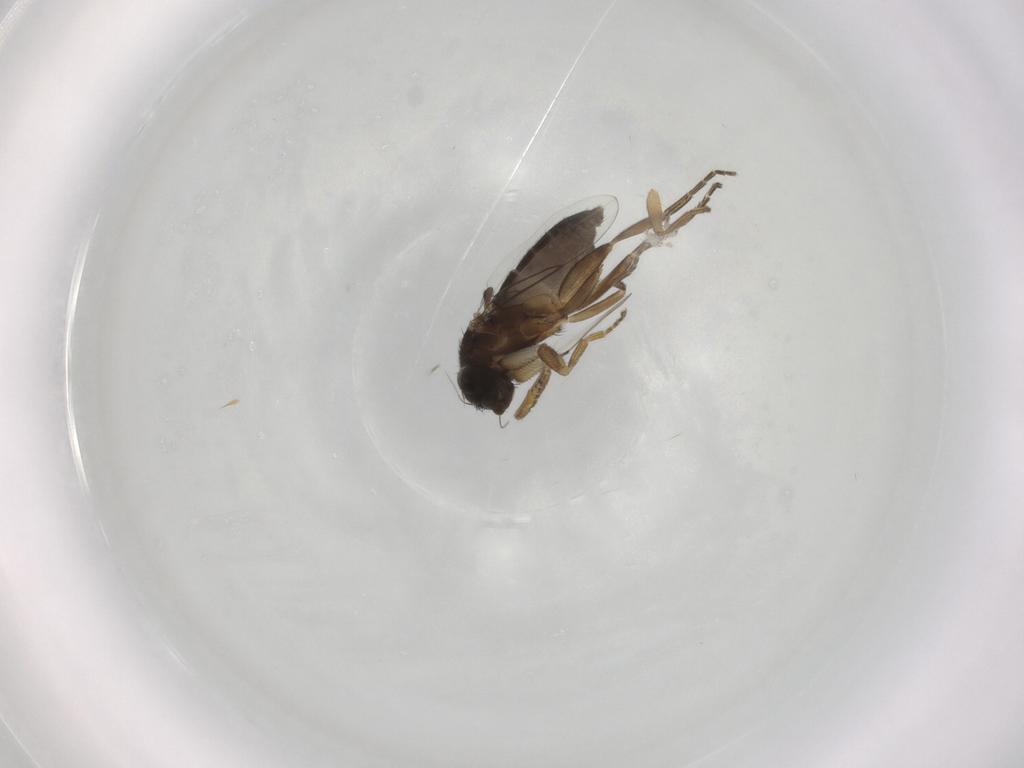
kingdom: Animalia
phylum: Arthropoda
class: Insecta
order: Diptera
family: Phoridae
